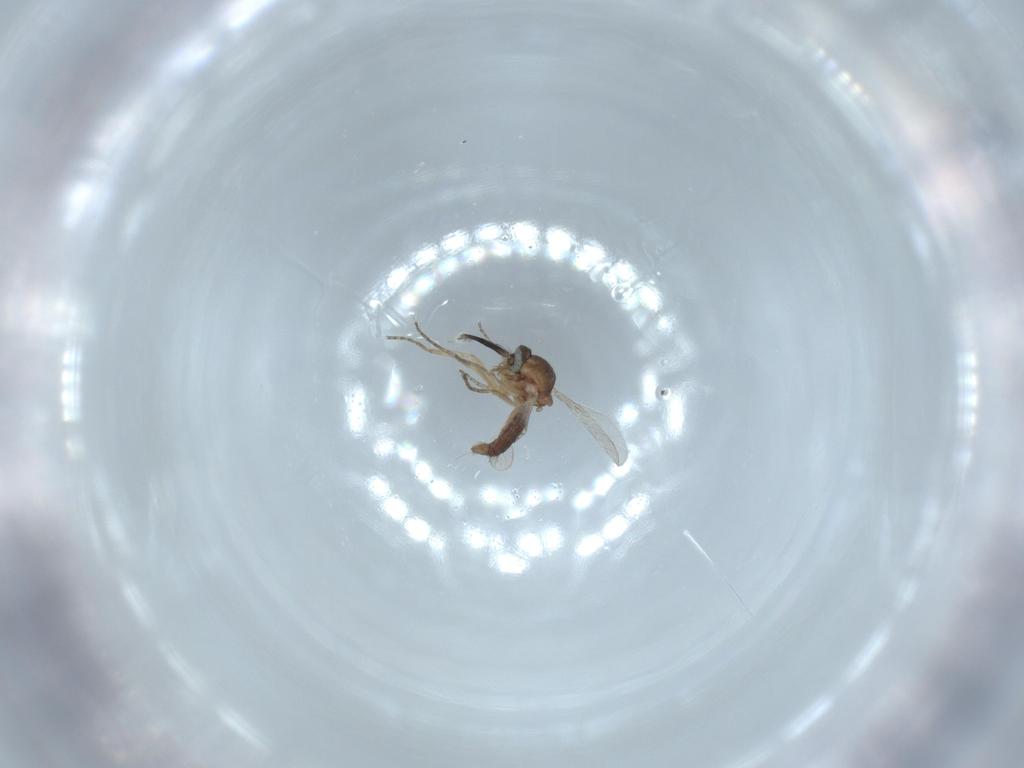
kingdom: Animalia
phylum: Arthropoda
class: Insecta
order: Diptera
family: Ceratopogonidae
